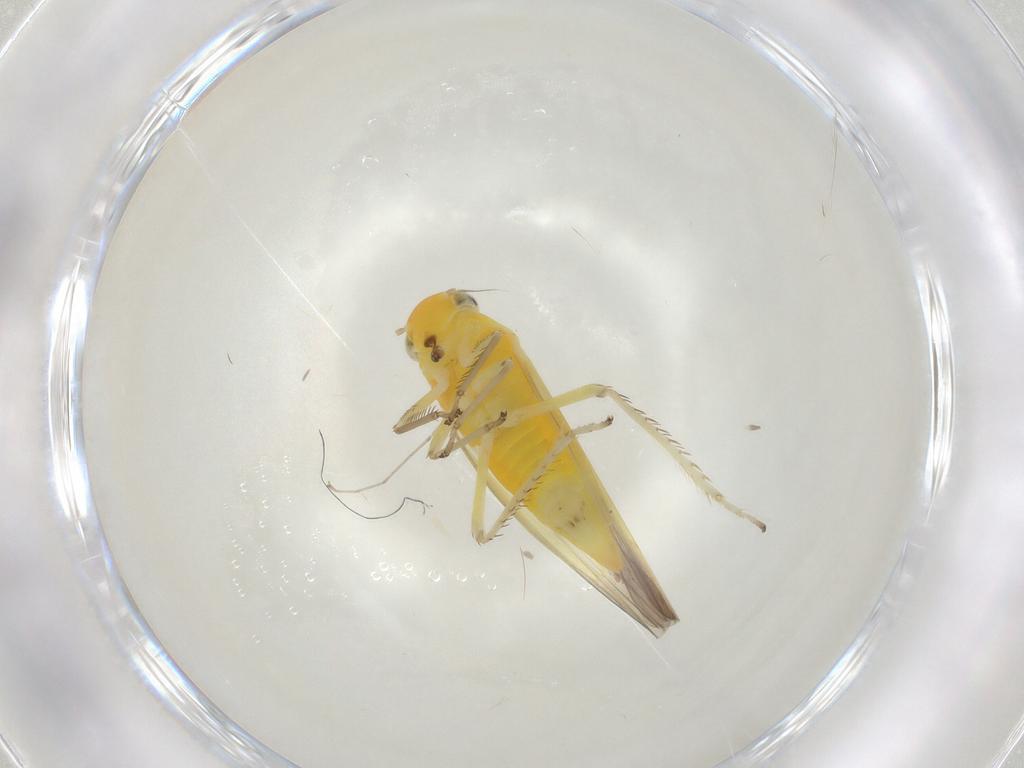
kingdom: Animalia
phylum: Arthropoda
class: Insecta
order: Hemiptera
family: Cicadellidae
